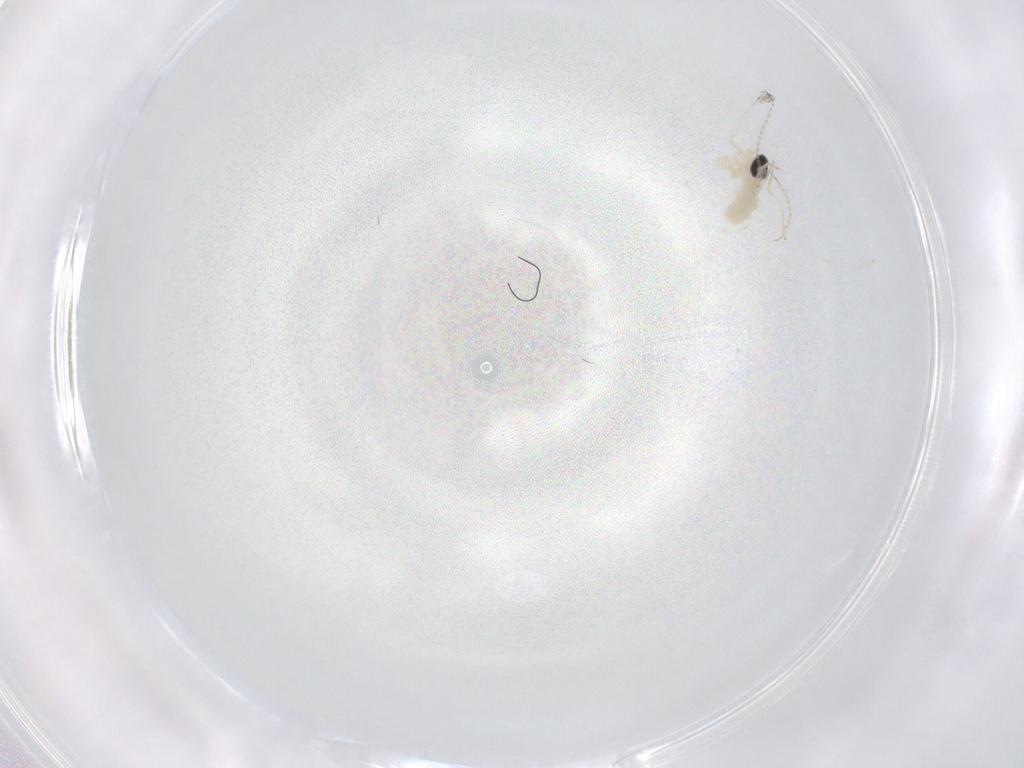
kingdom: Animalia
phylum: Arthropoda
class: Insecta
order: Diptera
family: Cecidomyiidae
